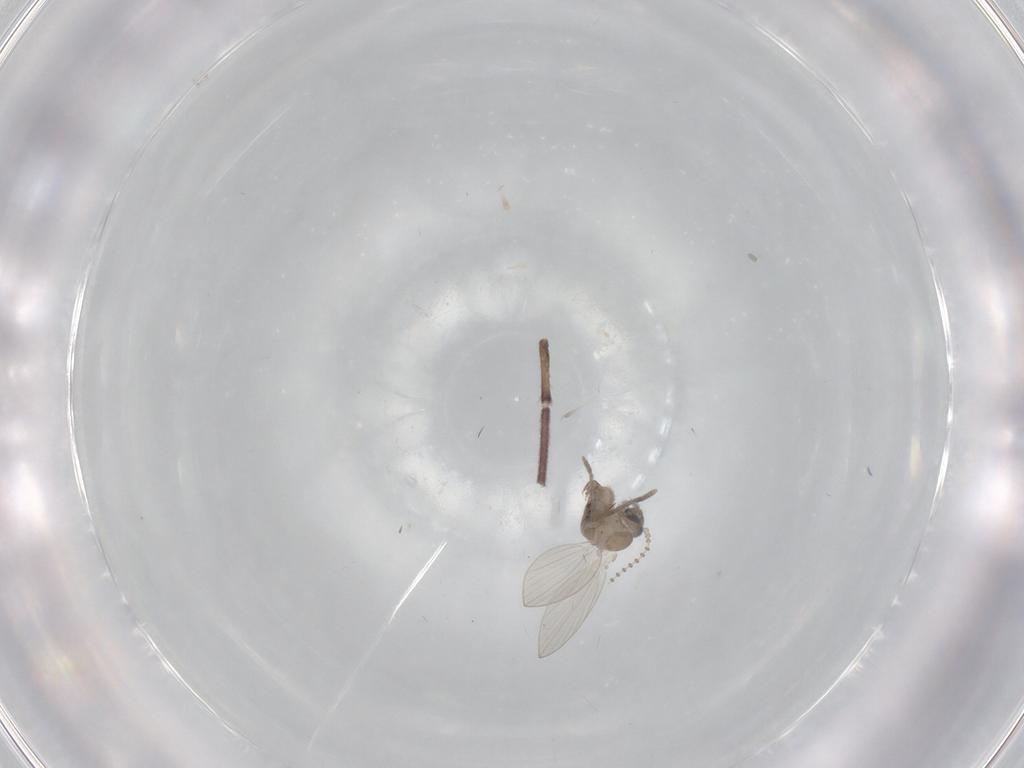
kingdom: Animalia
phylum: Arthropoda
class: Insecta
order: Diptera
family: Psychodidae
